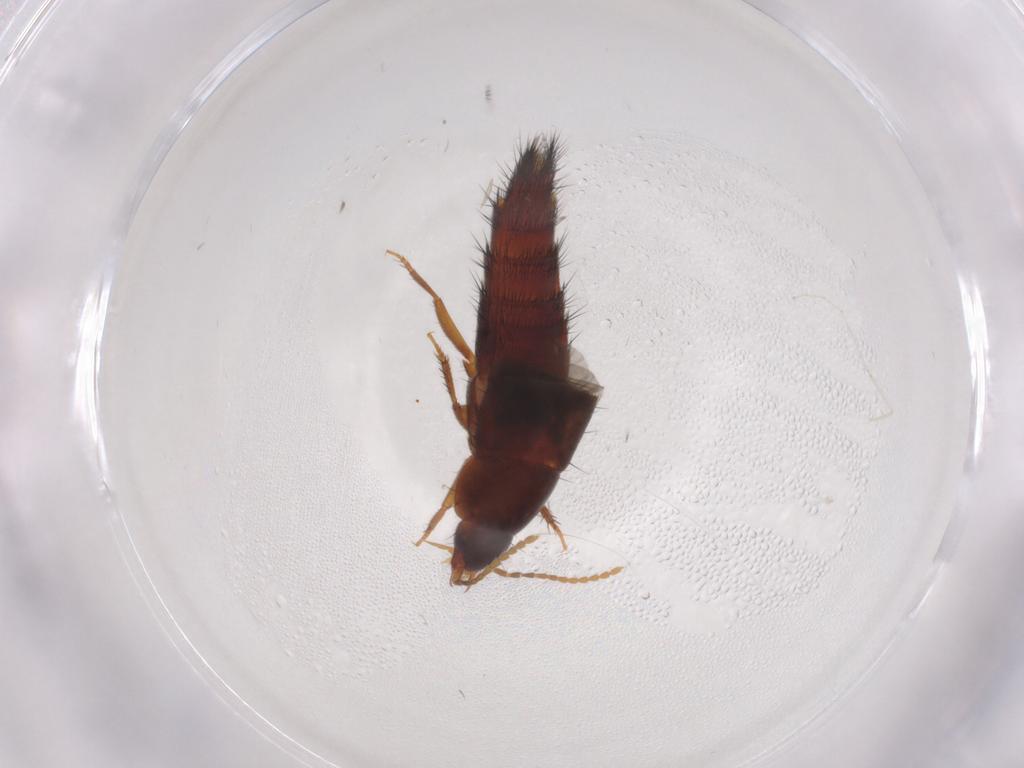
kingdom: Animalia
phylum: Arthropoda
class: Insecta
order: Coleoptera
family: Staphylinidae
